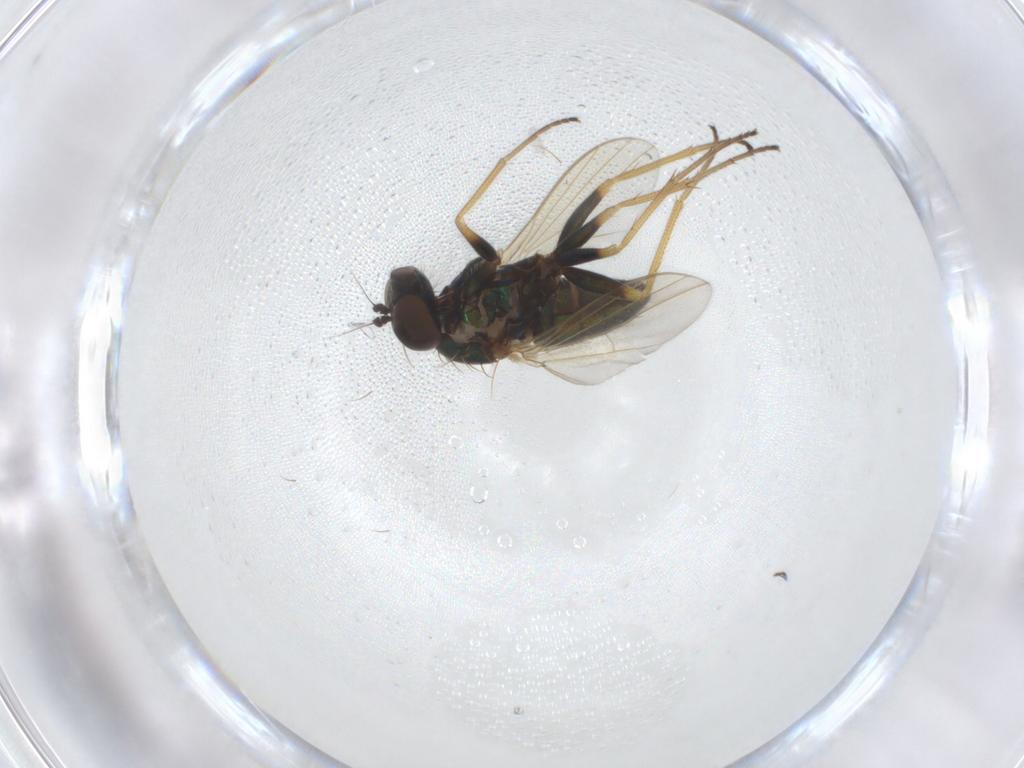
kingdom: Animalia
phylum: Arthropoda
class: Insecta
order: Diptera
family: Dolichopodidae
